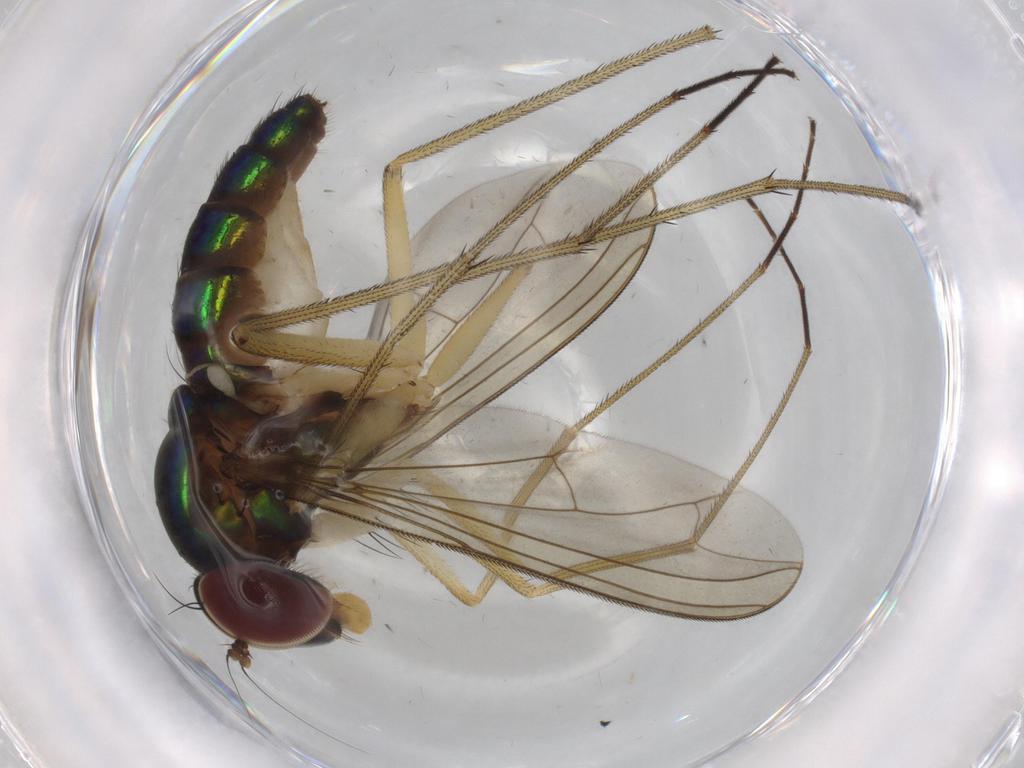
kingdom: Animalia
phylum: Arthropoda
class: Insecta
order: Diptera
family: Dolichopodidae
